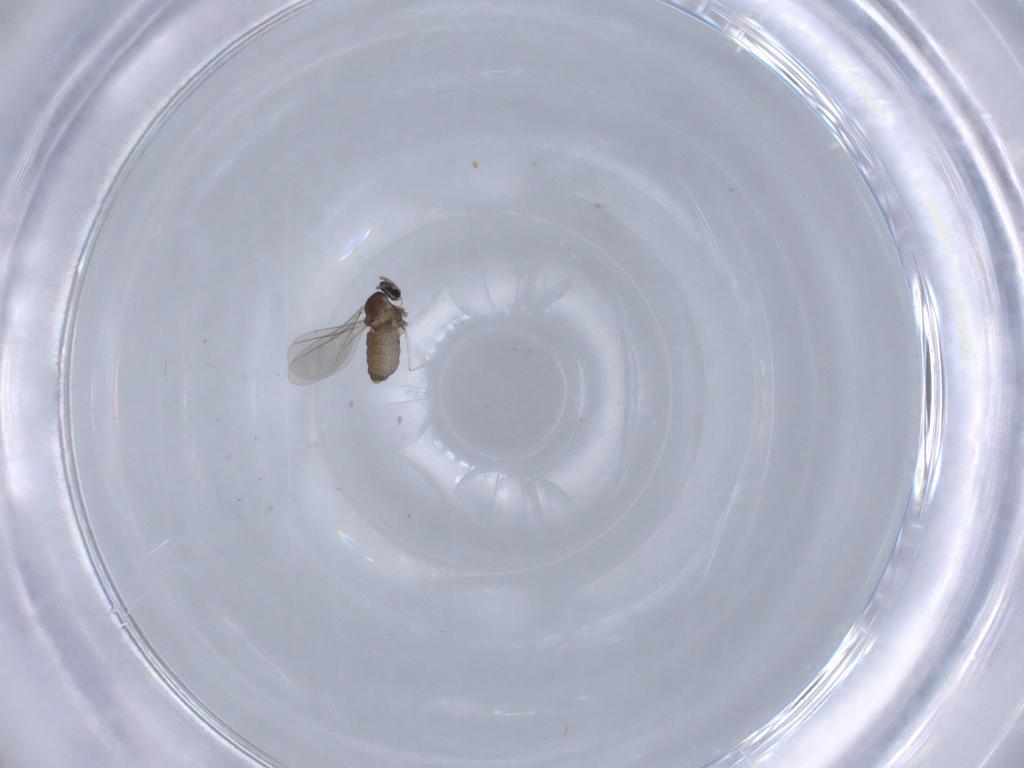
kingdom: Animalia
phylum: Arthropoda
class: Insecta
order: Diptera
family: Cecidomyiidae
